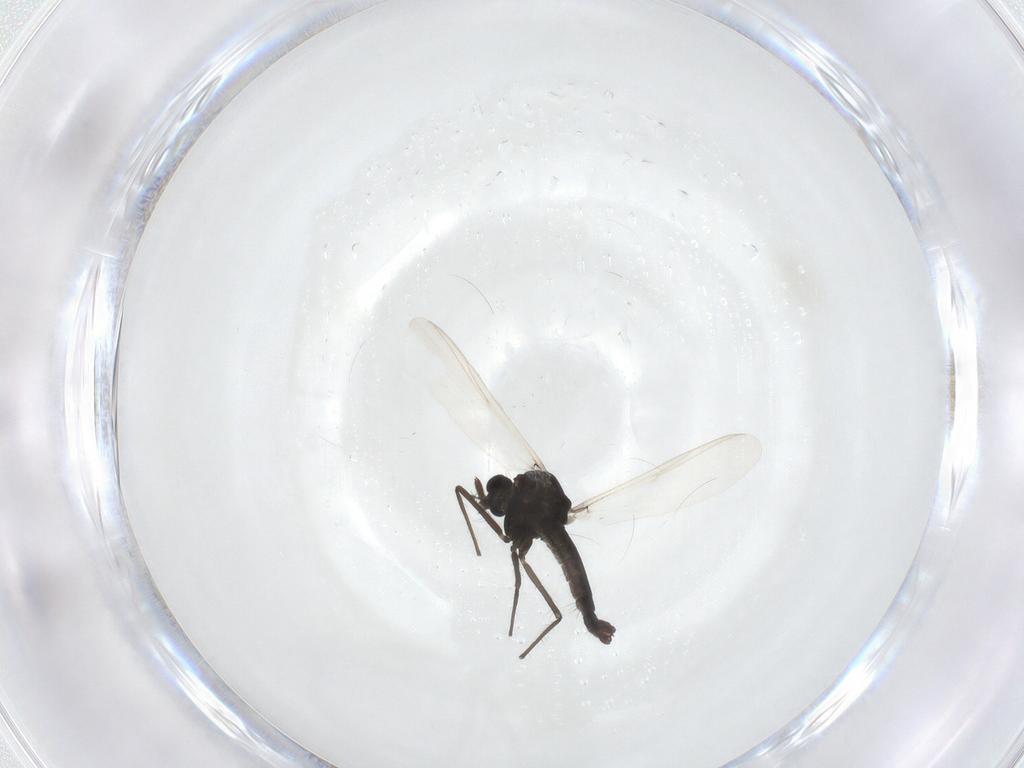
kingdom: Animalia
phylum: Arthropoda
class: Insecta
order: Diptera
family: Chironomidae
